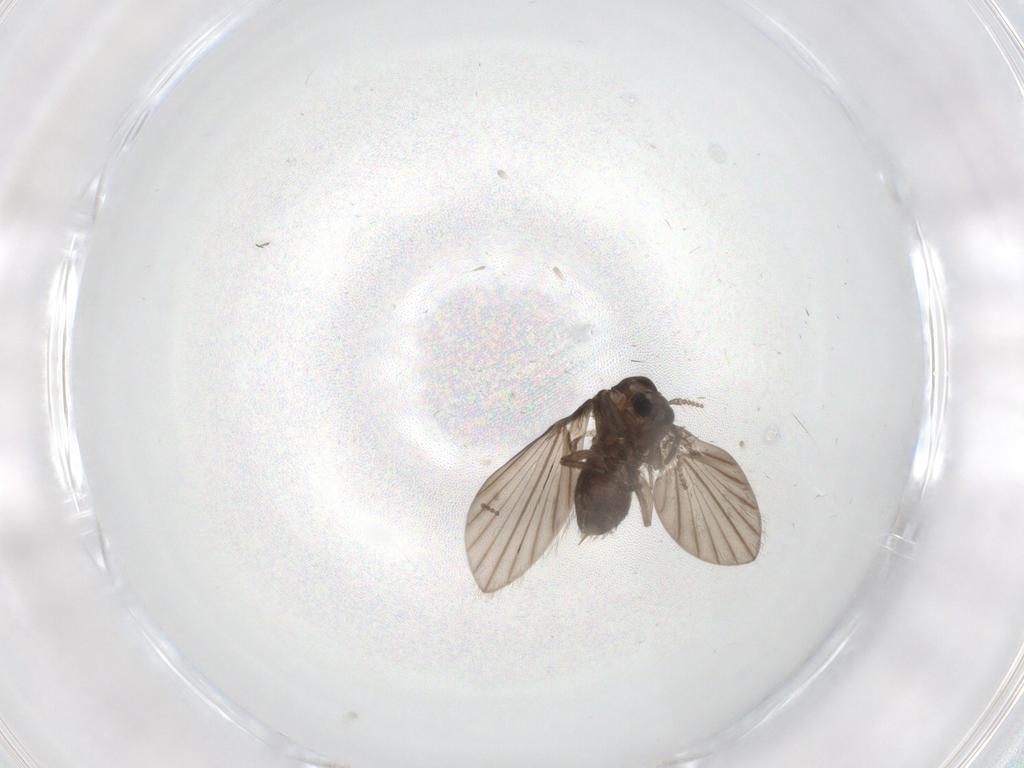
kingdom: Animalia
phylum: Arthropoda
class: Insecta
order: Diptera
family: Psychodidae
